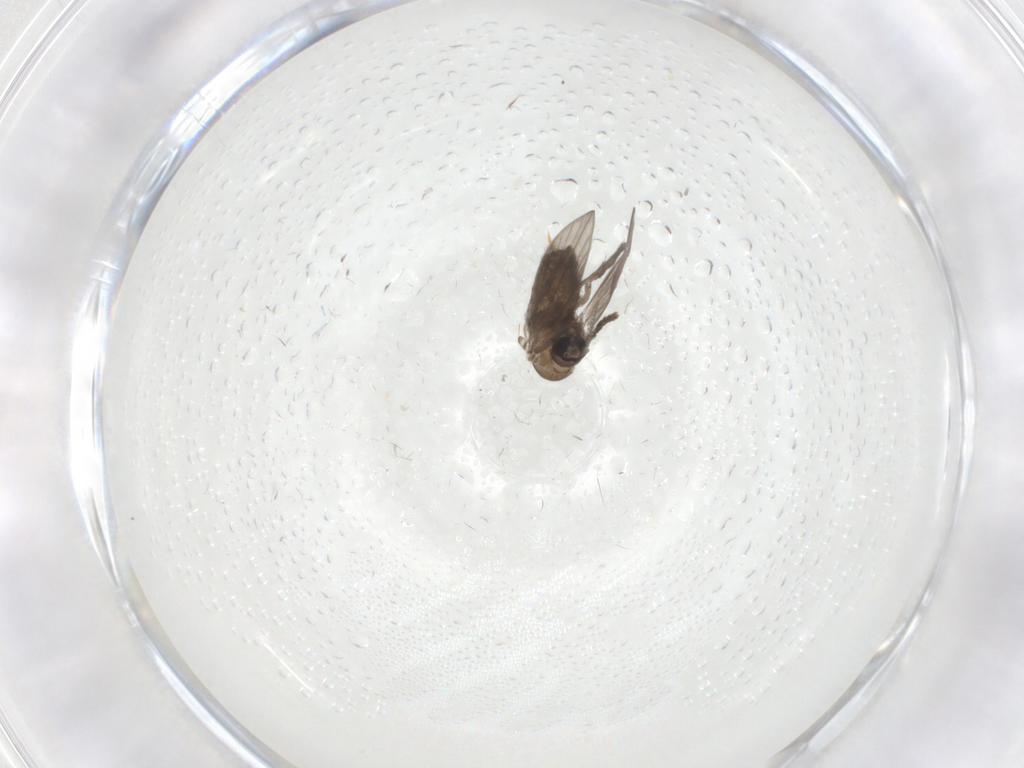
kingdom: Animalia
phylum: Arthropoda
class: Insecta
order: Diptera
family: Psychodidae
